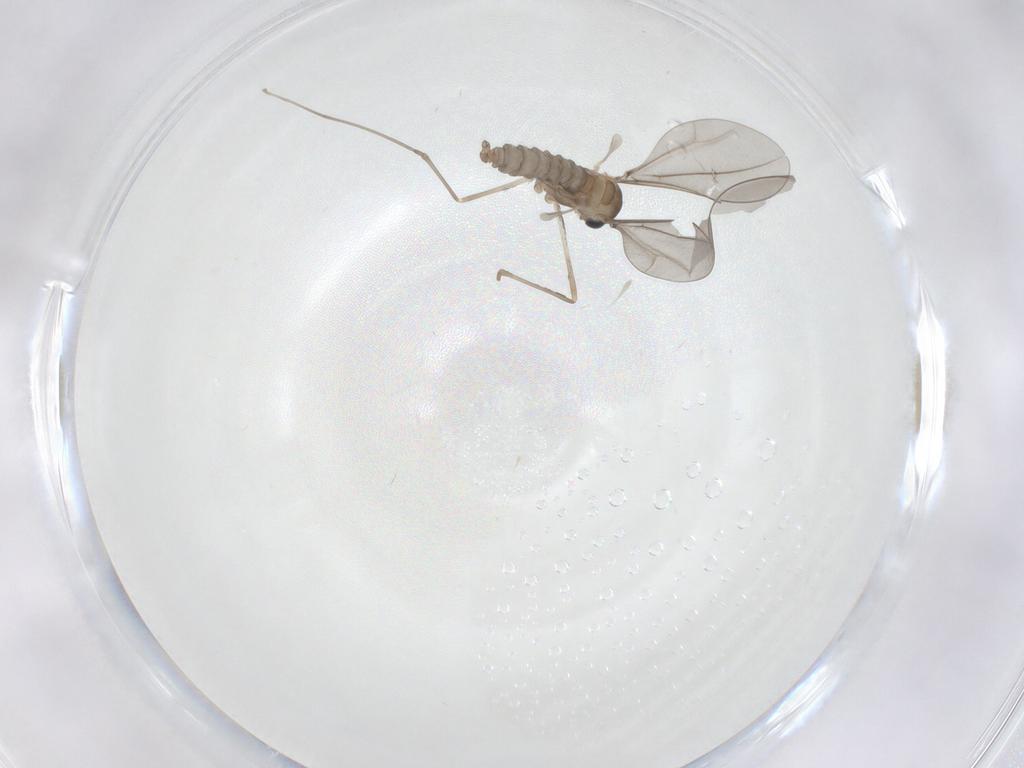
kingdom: Animalia
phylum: Arthropoda
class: Insecta
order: Diptera
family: Cecidomyiidae
